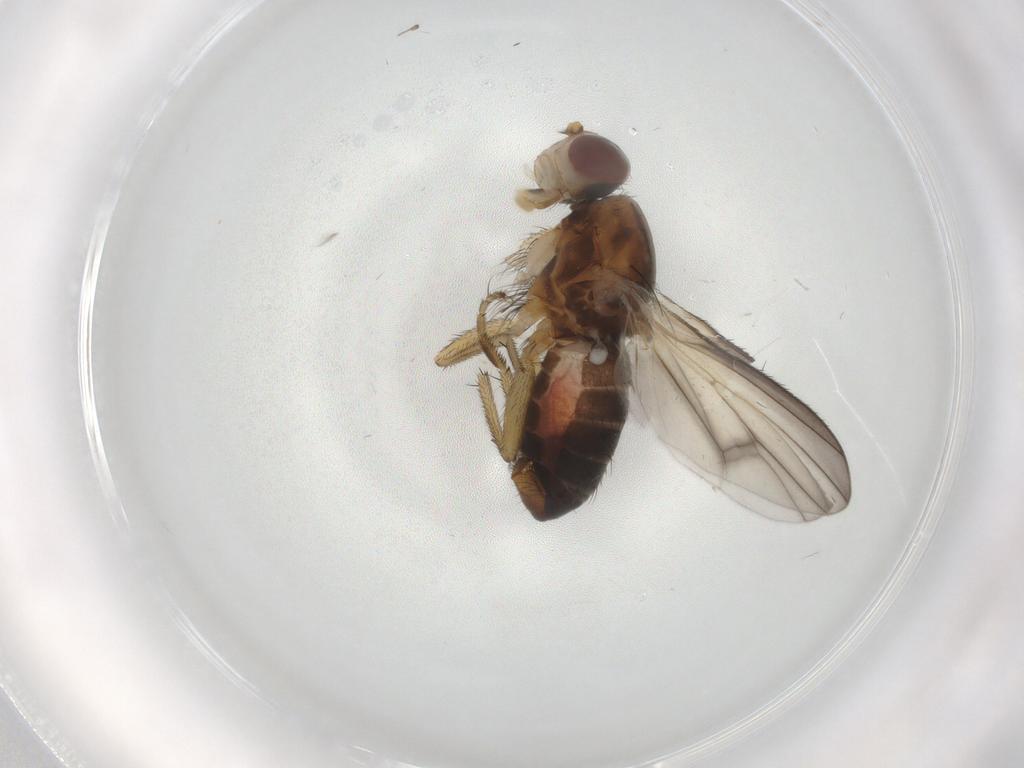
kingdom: Animalia
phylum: Arthropoda
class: Insecta
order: Diptera
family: Heleomyzidae
